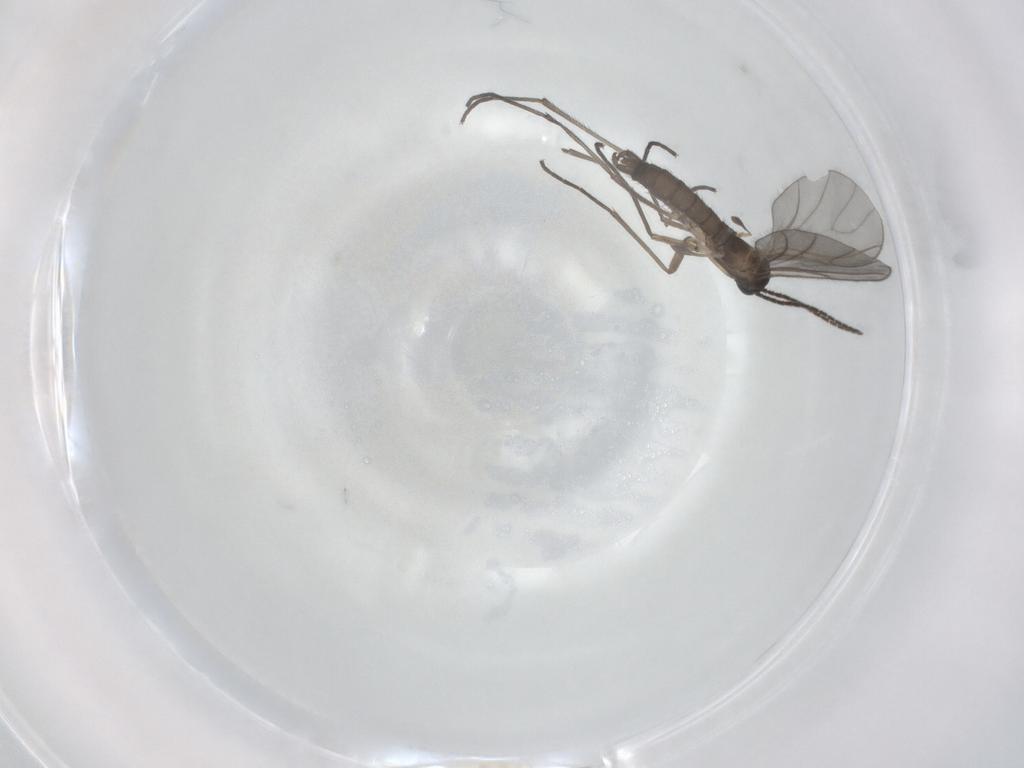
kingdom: Animalia
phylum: Arthropoda
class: Insecta
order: Diptera
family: Sciaridae
